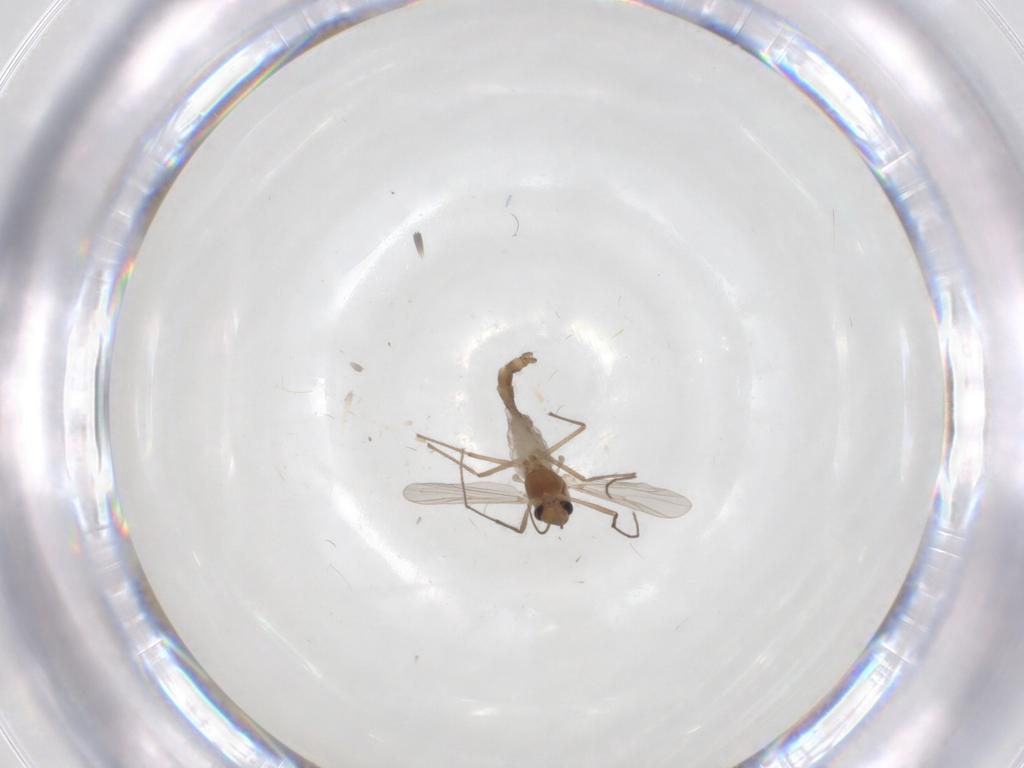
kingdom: Animalia
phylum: Arthropoda
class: Insecta
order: Diptera
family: Chironomidae
